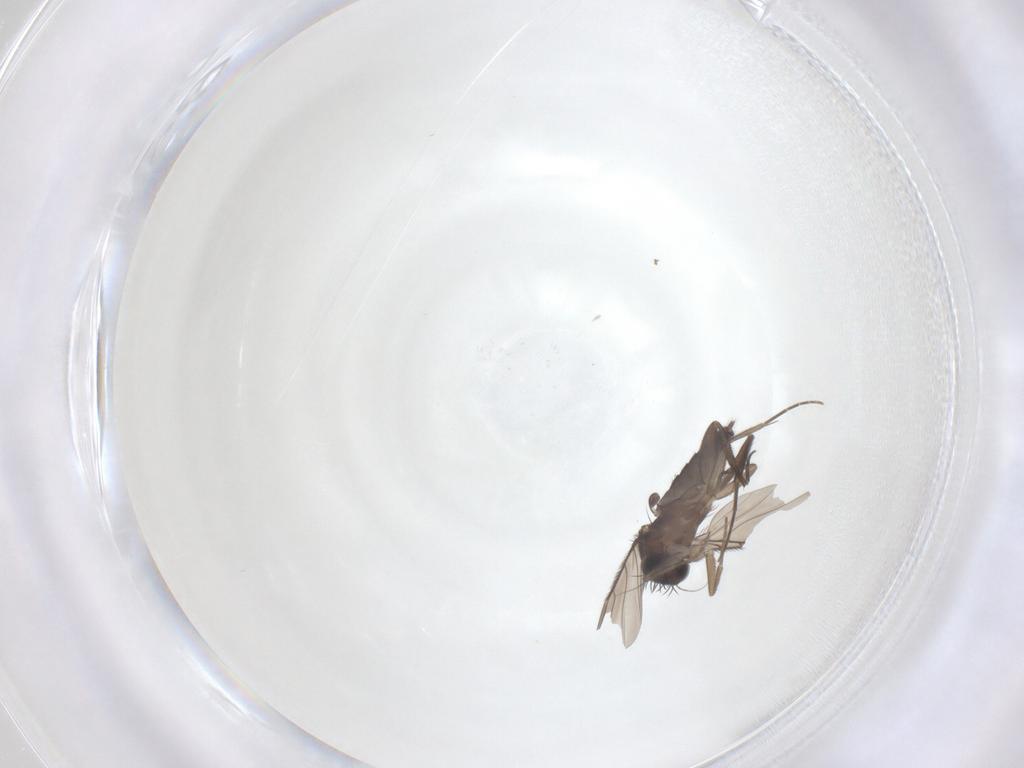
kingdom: Animalia
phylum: Arthropoda
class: Insecta
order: Diptera
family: Phoridae
